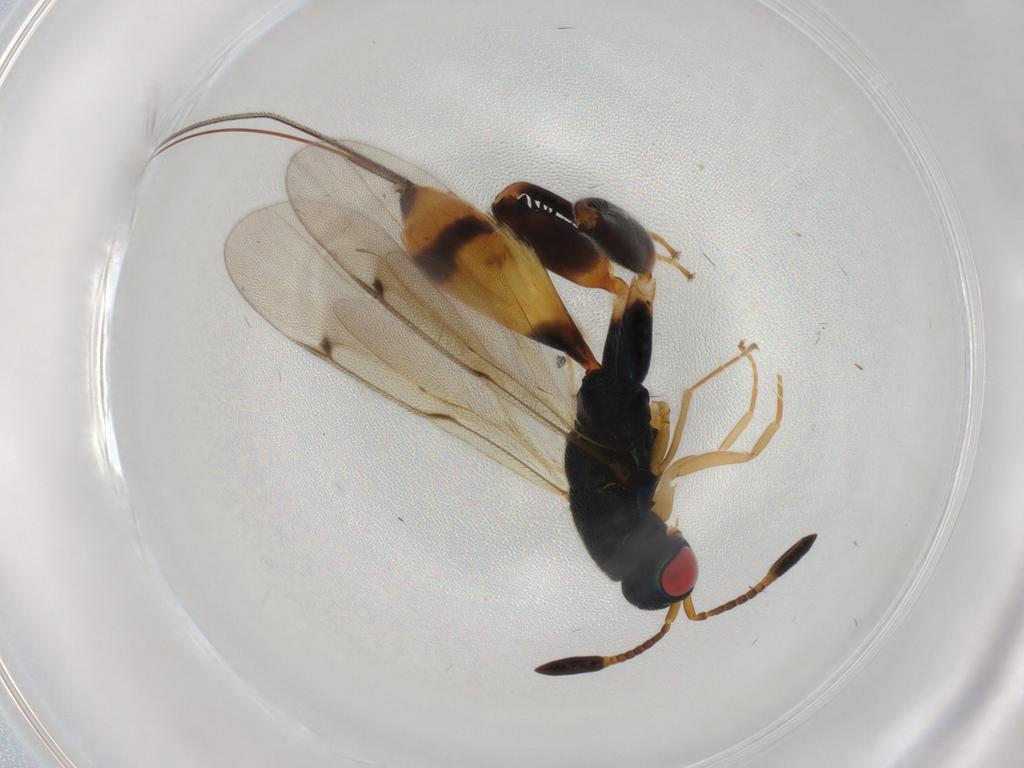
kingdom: Animalia
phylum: Arthropoda
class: Insecta
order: Hymenoptera
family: Torymidae
